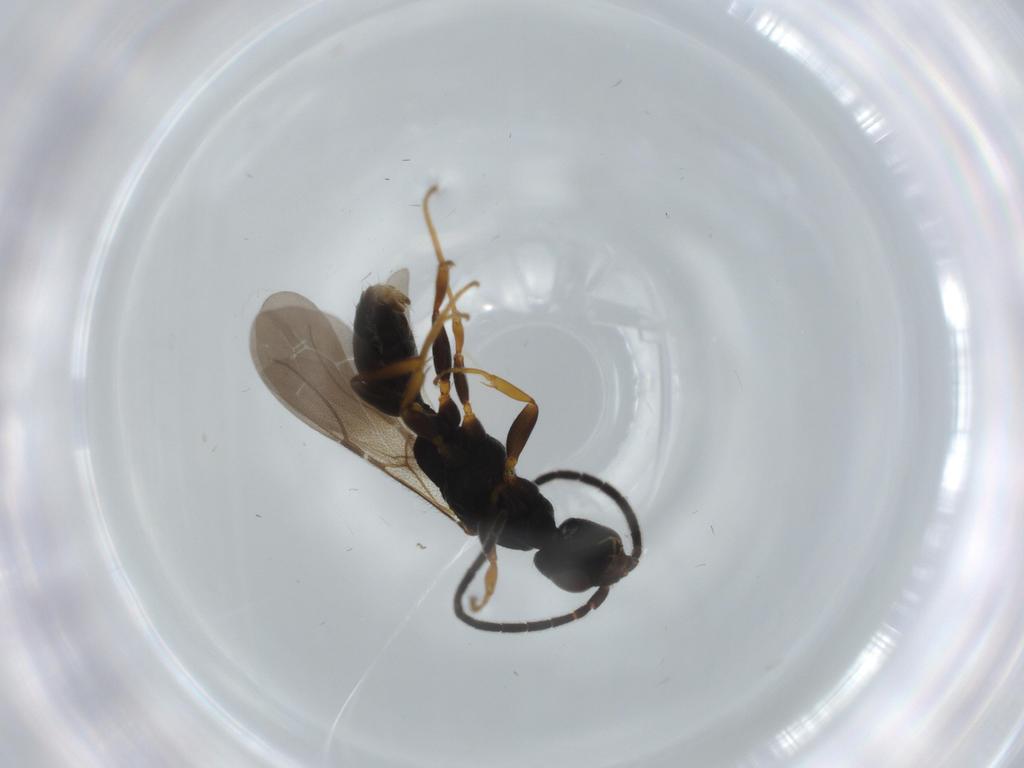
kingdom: Animalia
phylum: Arthropoda
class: Insecta
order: Hymenoptera
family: Bethylidae
